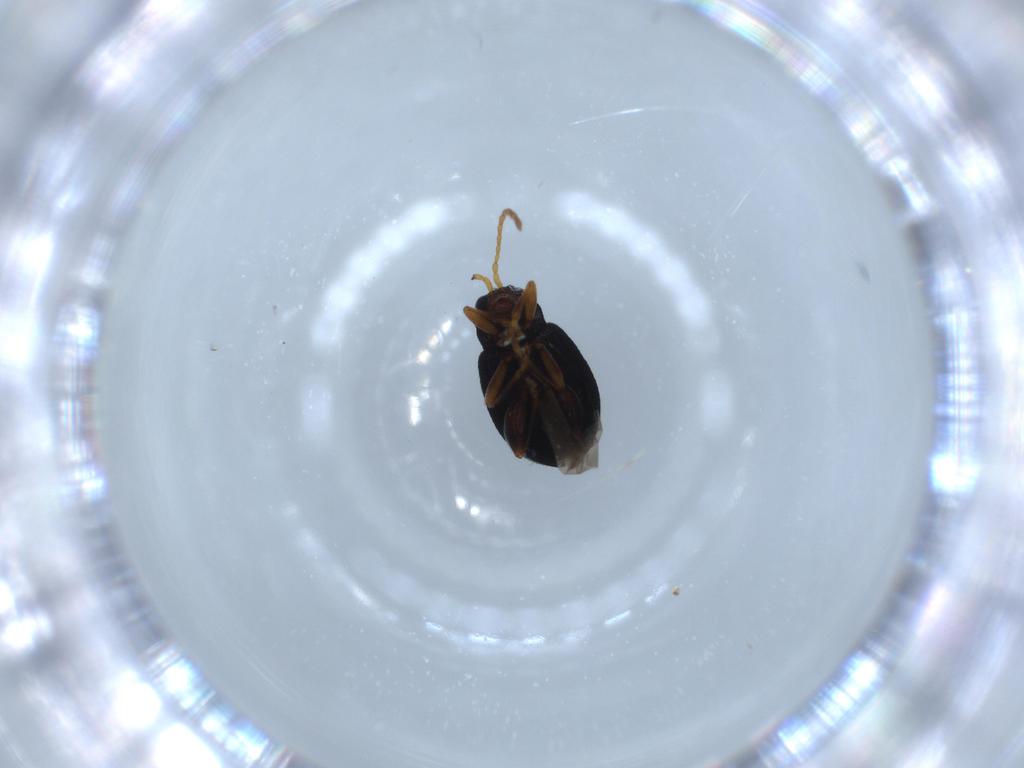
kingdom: Animalia
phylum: Arthropoda
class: Insecta
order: Coleoptera
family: Chrysomelidae
